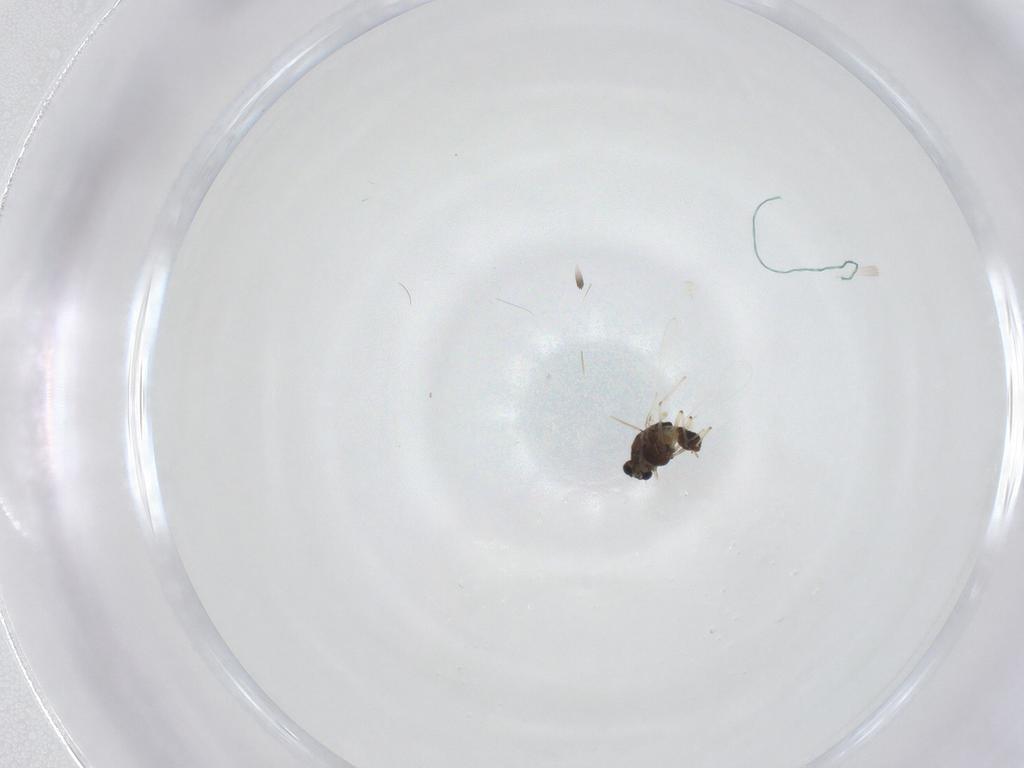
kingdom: Animalia
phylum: Arthropoda
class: Insecta
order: Diptera
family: Chironomidae
